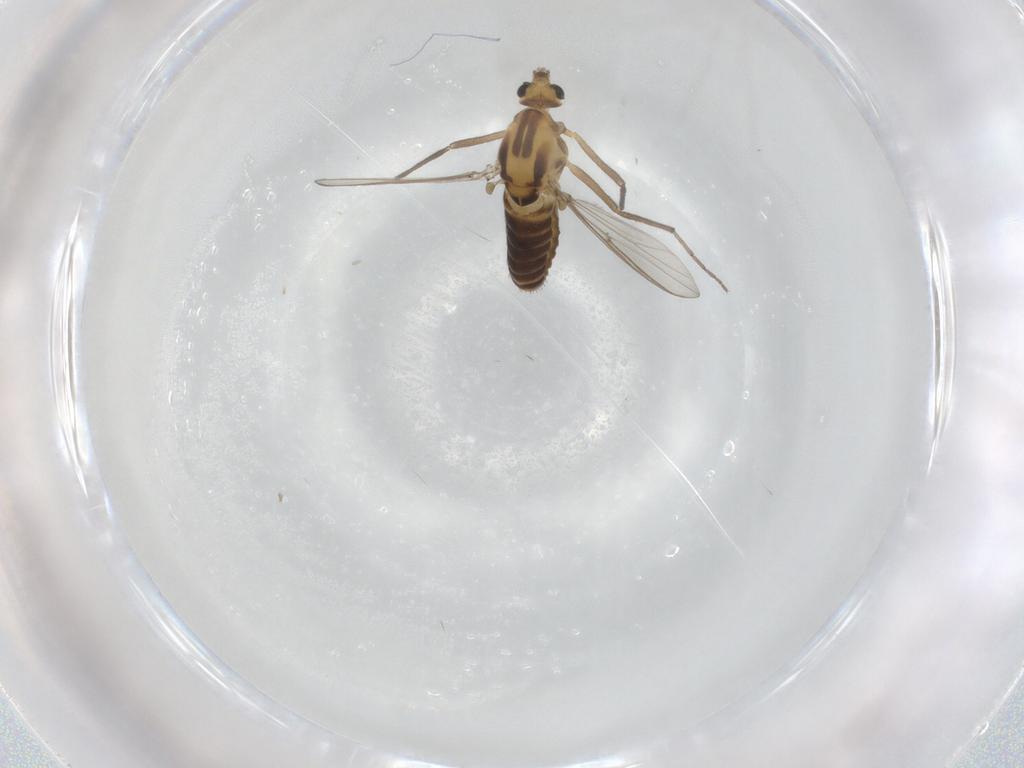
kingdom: Animalia
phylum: Arthropoda
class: Insecta
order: Diptera
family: Chironomidae
